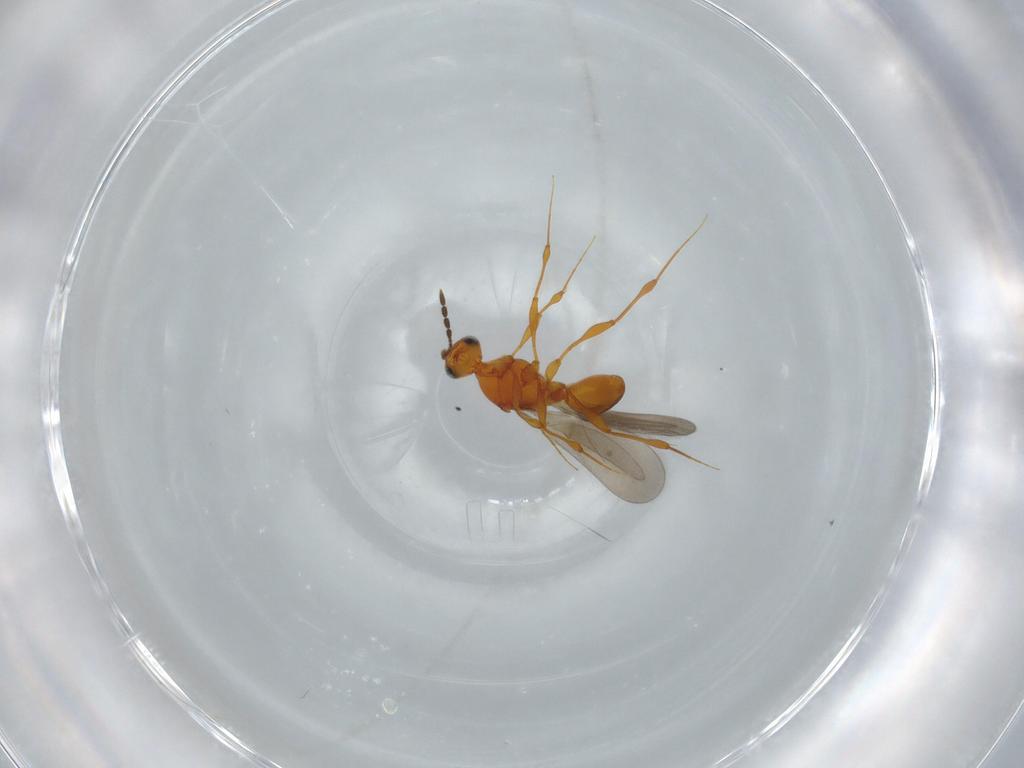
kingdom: Animalia
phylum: Arthropoda
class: Insecta
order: Hymenoptera
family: Platygastridae
